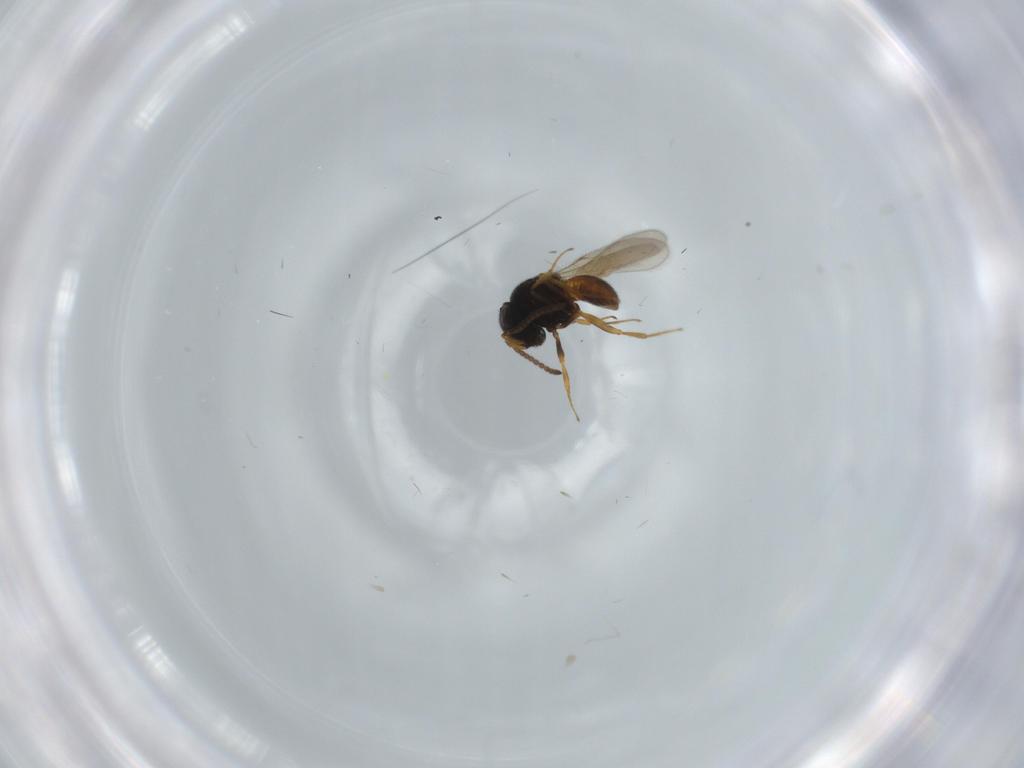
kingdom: Animalia
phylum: Arthropoda
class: Insecta
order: Hymenoptera
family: Scelionidae
